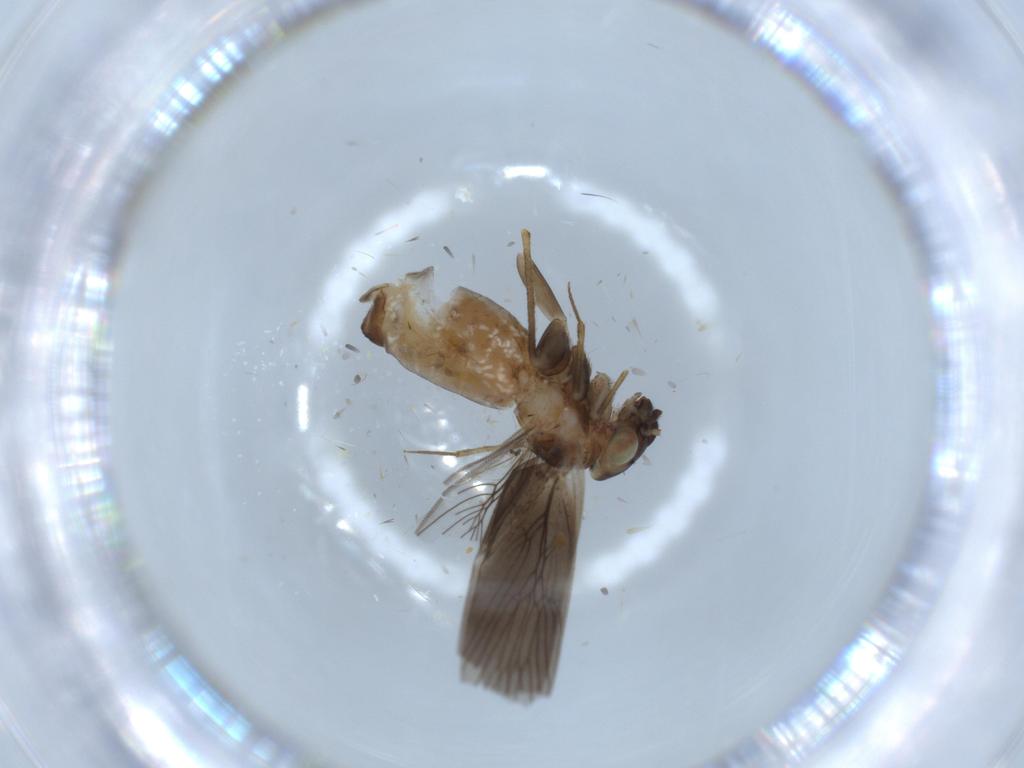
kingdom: Animalia
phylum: Arthropoda
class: Insecta
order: Psocodea
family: Lepidopsocidae
